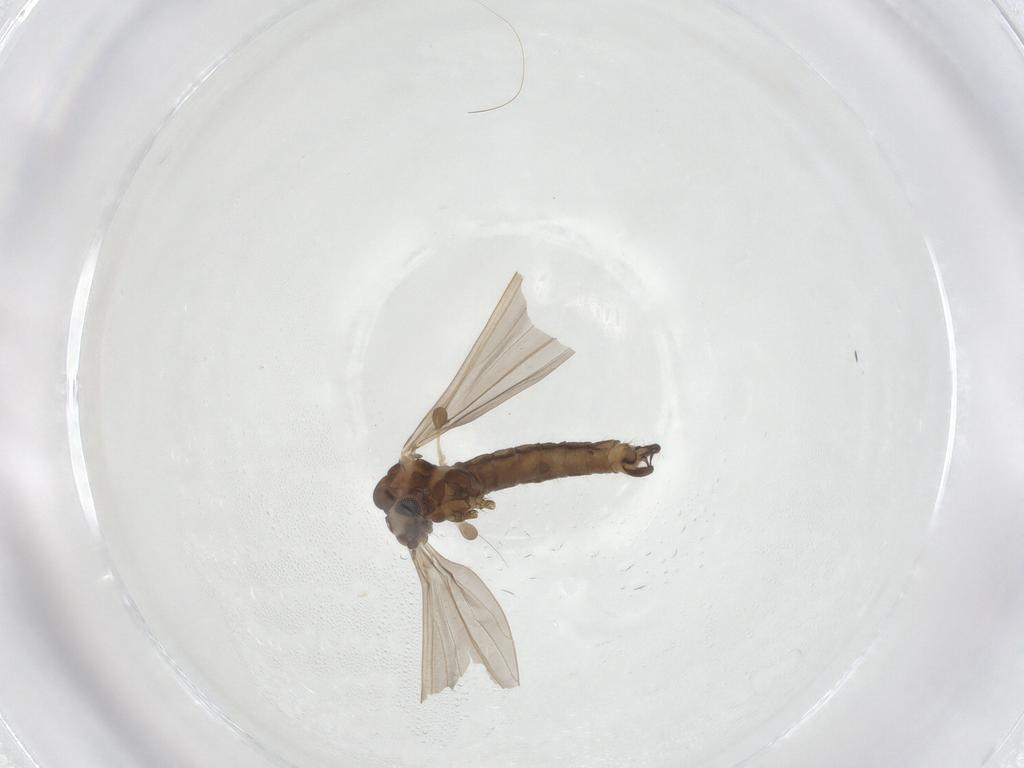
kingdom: Animalia
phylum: Arthropoda
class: Insecta
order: Diptera
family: Limoniidae
